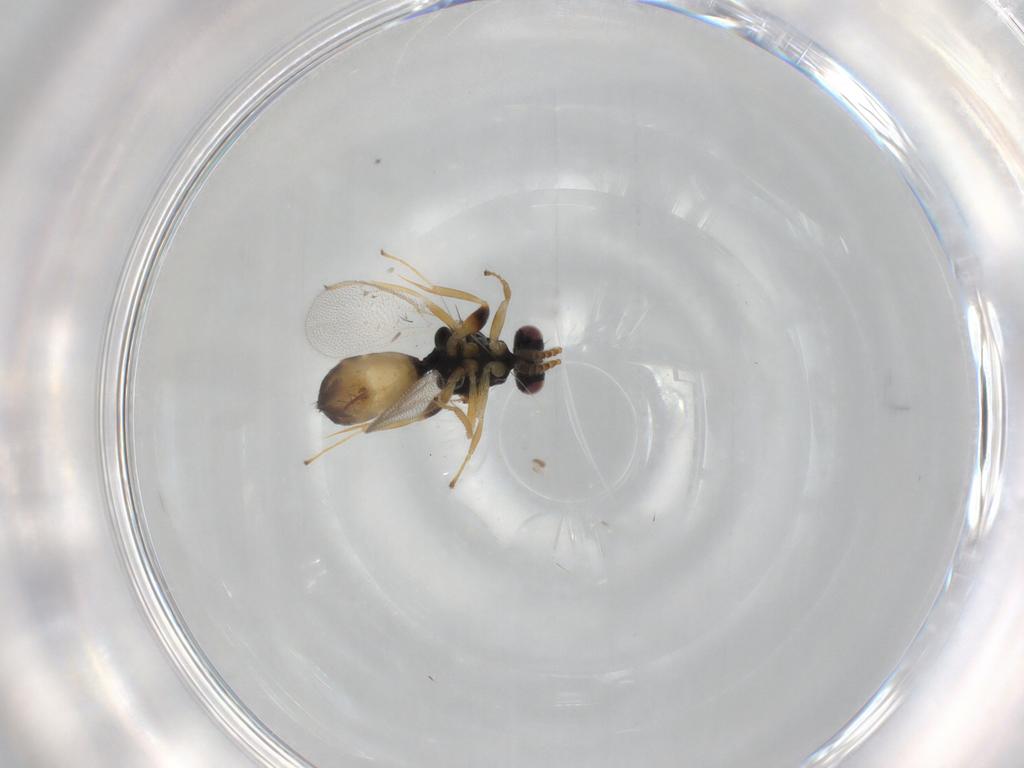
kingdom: Animalia
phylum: Arthropoda
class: Insecta
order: Hymenoptera
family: Eulophidae
